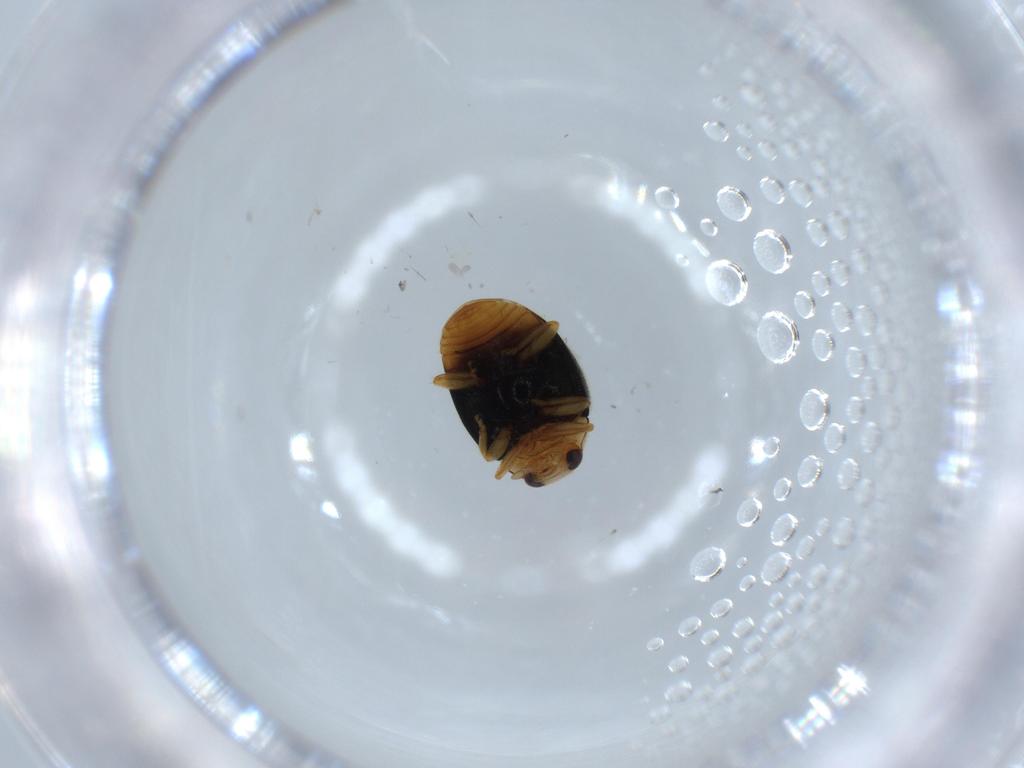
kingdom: Animalia
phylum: Arthropoda
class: Insecta
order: Coleoptera
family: Coccinellidae
